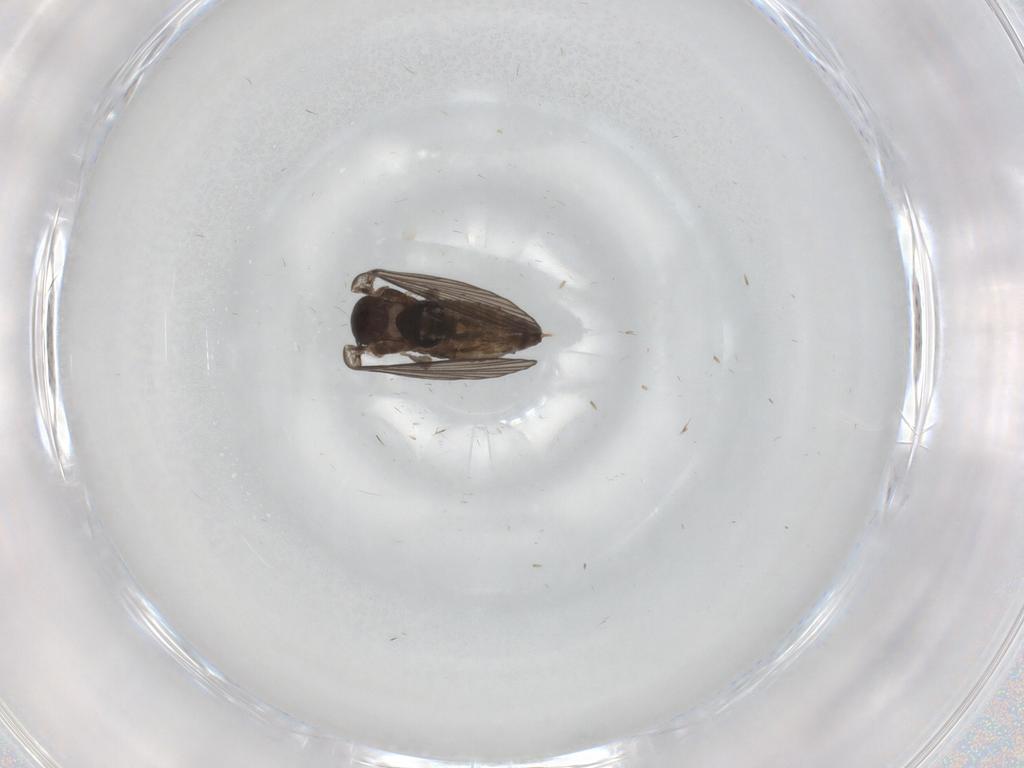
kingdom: Animalia
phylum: Arthropoda
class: Insecta
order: Diptera
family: Psychodidae
